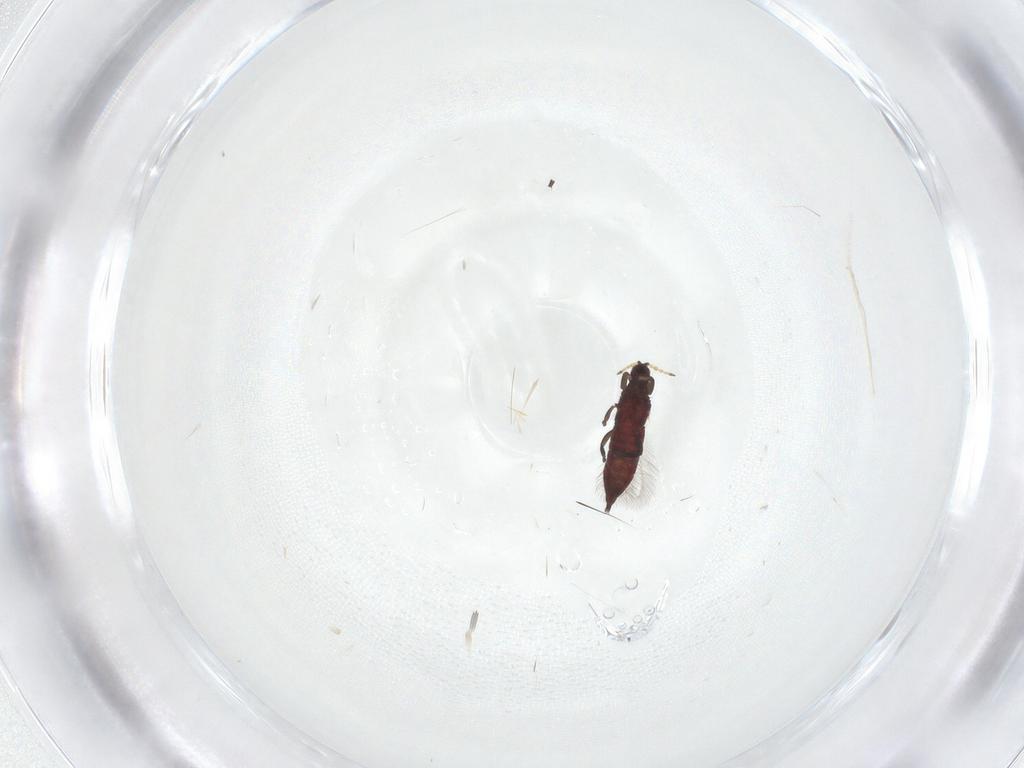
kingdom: Animalia
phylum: Arthropoda
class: Insecta
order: Thysanoptera
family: Phlaeothripidae
